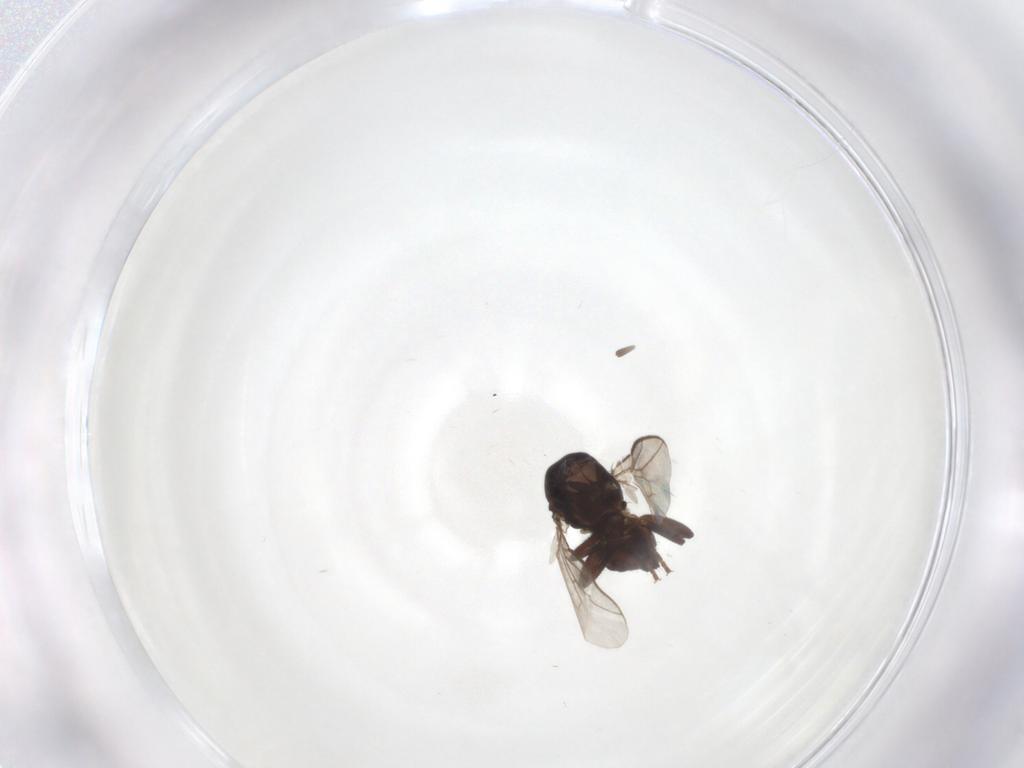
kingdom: Animalia
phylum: Arthropoda
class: Insecta
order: Diptera
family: Sphaeroceridae
